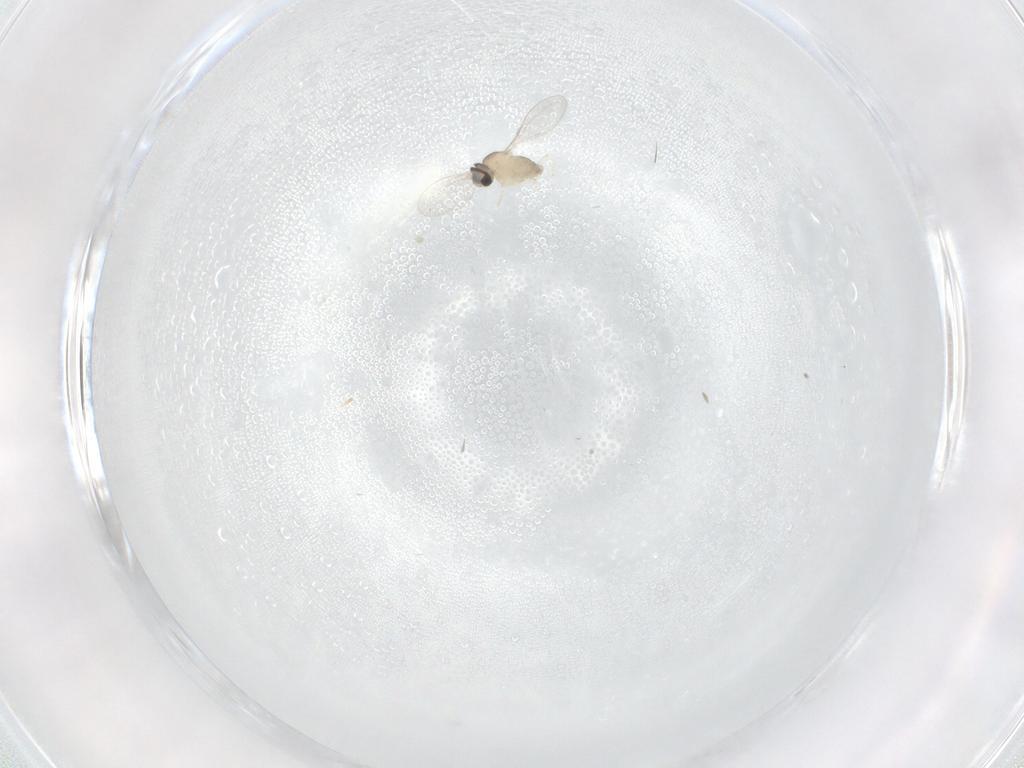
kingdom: Animalia
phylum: Arthropoda
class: Insecta
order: Diptera
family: Cecidomyiidae
